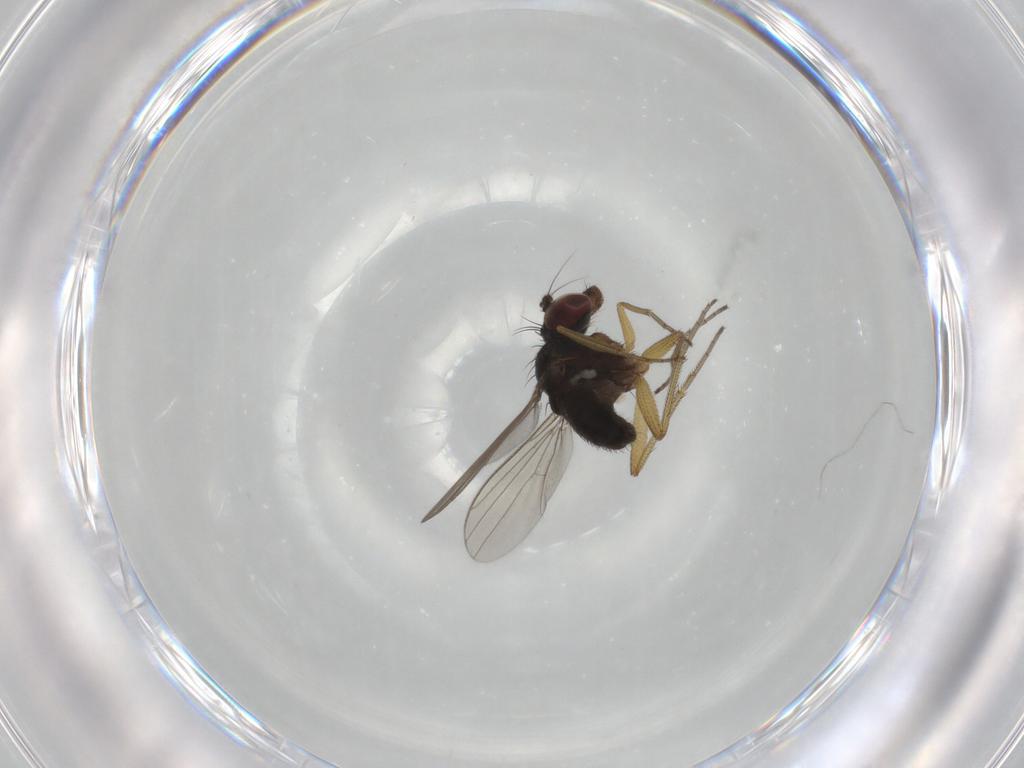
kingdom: Animalia
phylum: Arthropoda
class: Insecta
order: Diptera
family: Dolichopodidae
